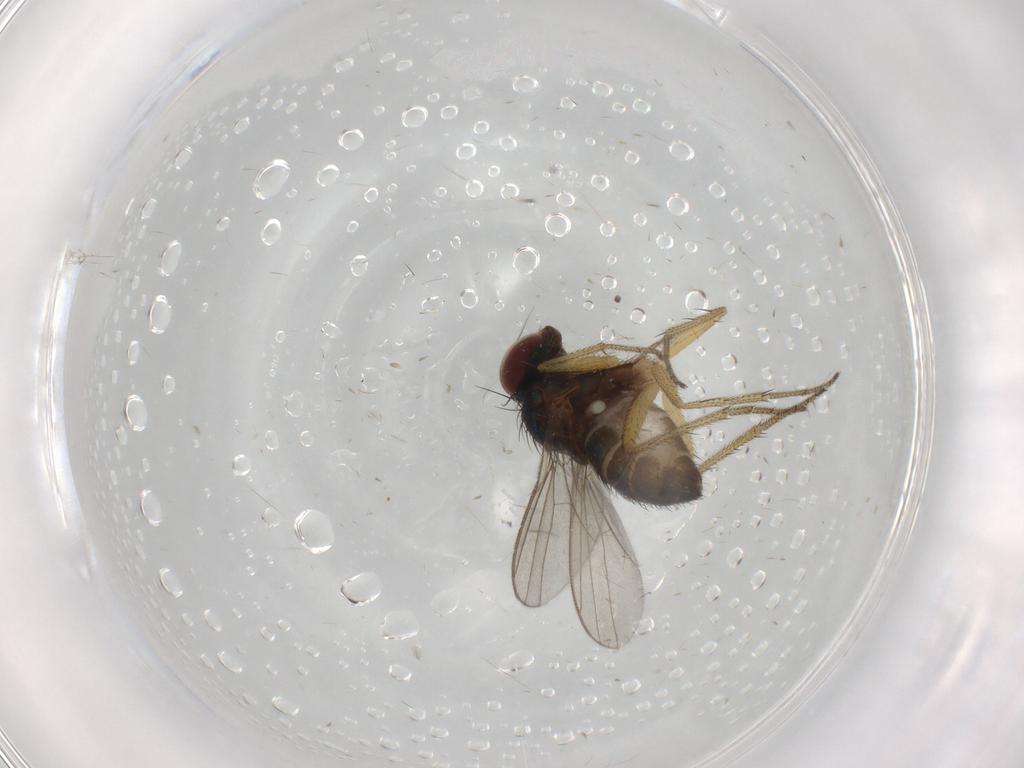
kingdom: Animalia
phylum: Arthropoda
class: Insecta
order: Diptera
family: Dolichopodidae
